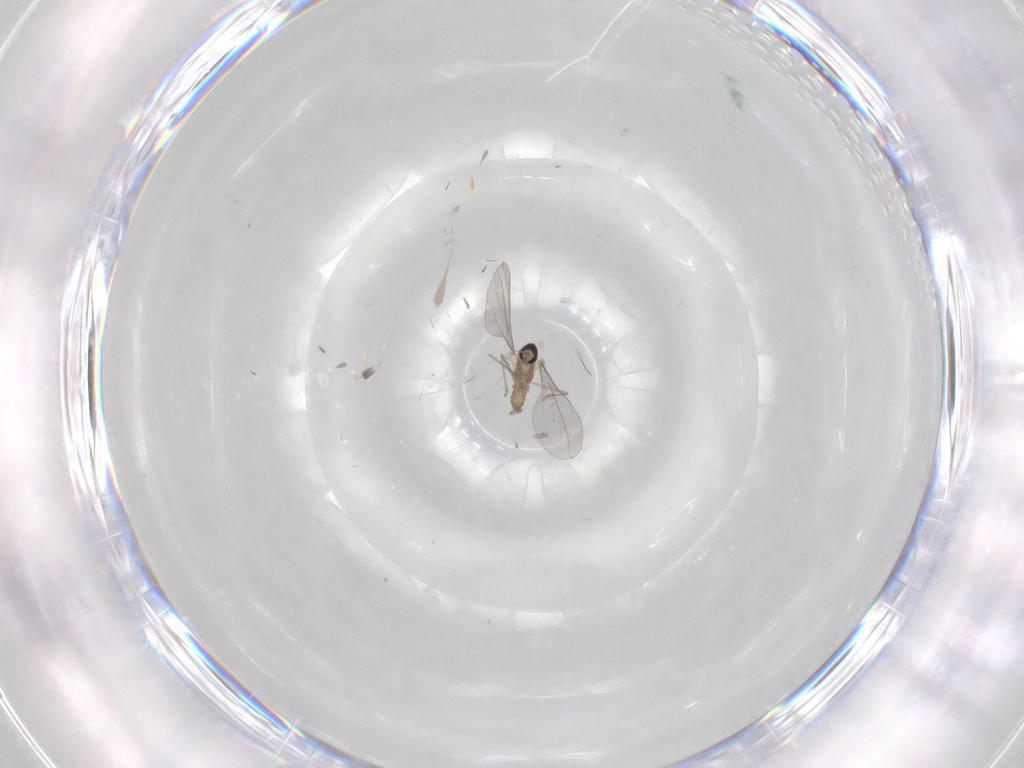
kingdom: Animalia
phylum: Arthropoda
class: Insecta
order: Diptera
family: Cecidomyiidae
